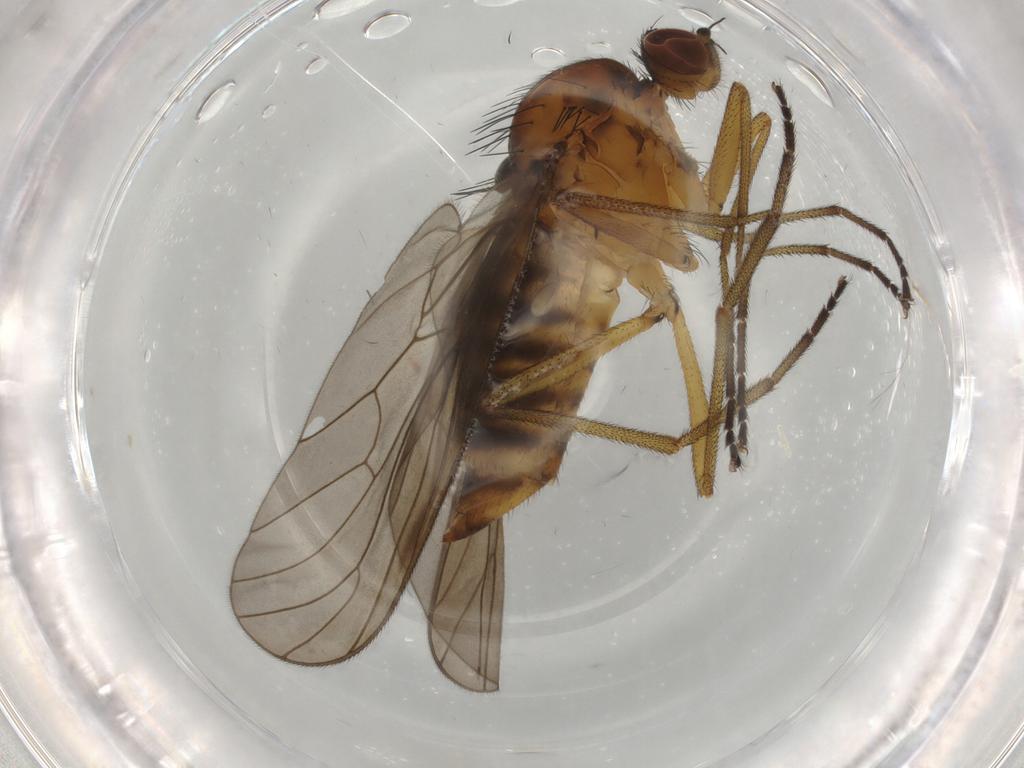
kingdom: Animalia
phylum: Arthropoda
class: Insecta
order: Diptera
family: Brachystomatidae
